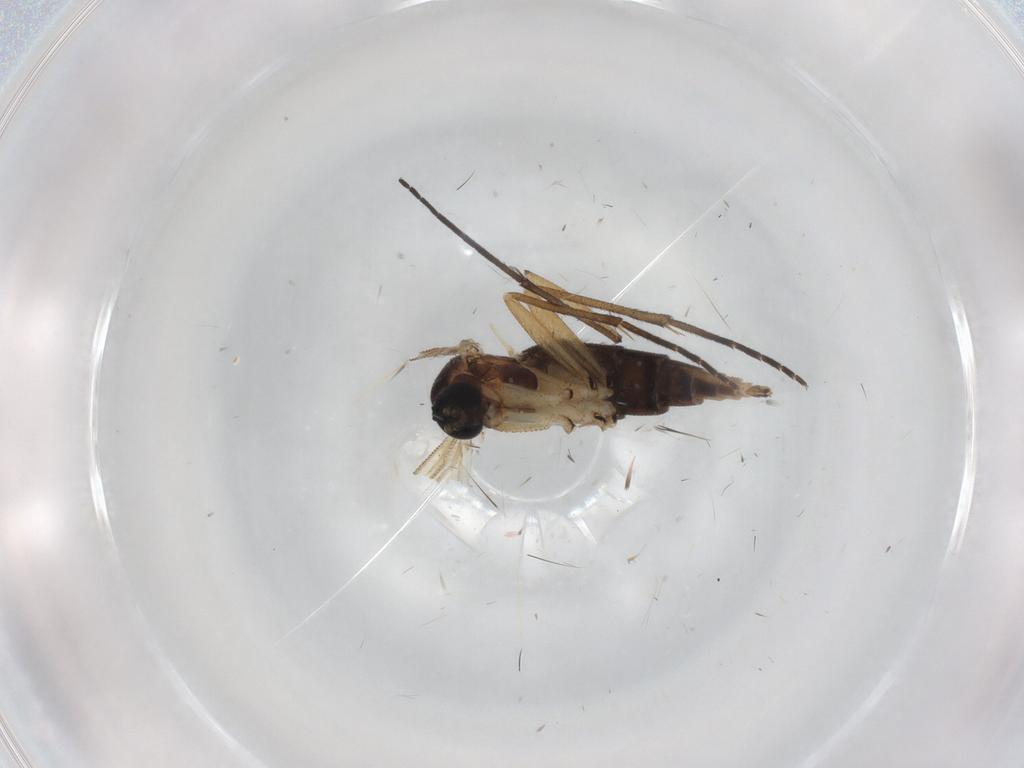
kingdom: Animalia
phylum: Arthropoda
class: Insecta
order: Diptera
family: Sciaridae
